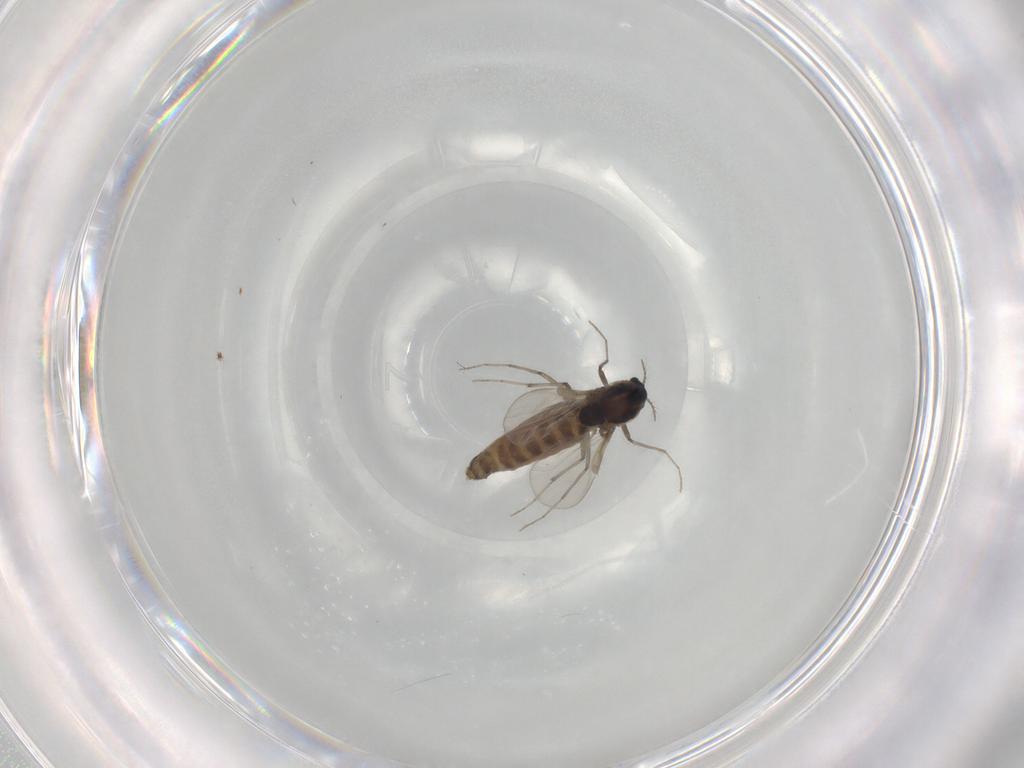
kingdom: Animalia
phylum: Arthropoda
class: Insecta
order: Diptera
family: Chironomidae
